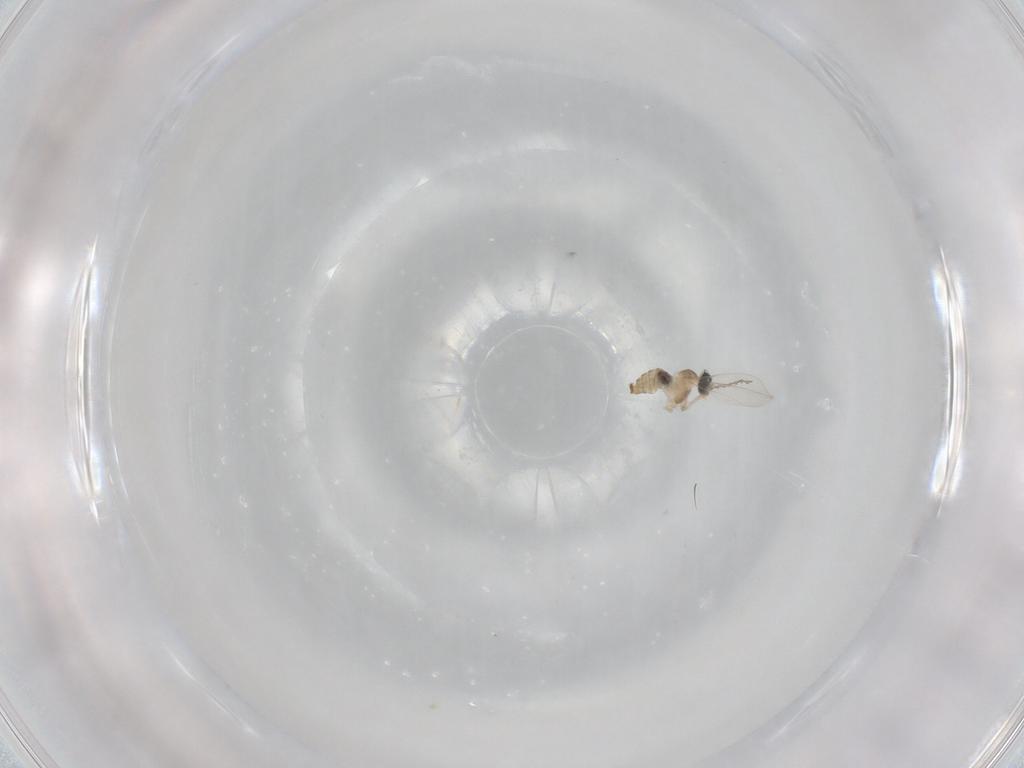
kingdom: Animalia
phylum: Arthropoda
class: Insecta
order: Diptera
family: Cecidomyiidae
